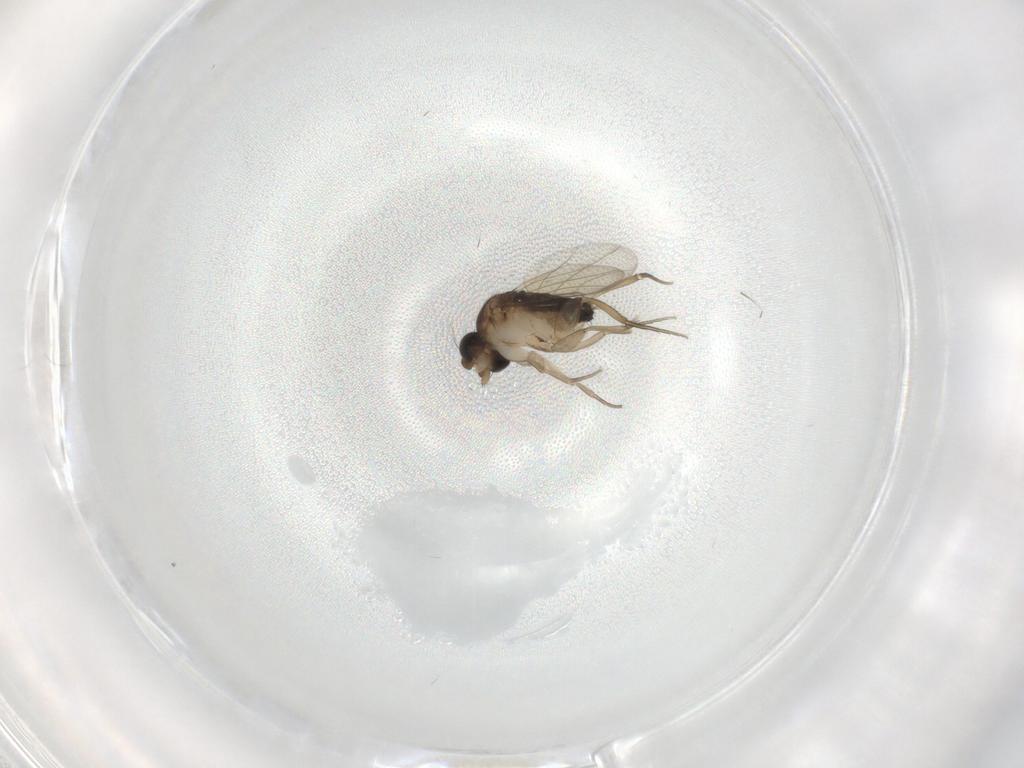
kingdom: Animalia
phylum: Arthropoda
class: Insecta
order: Diptera
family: Phoridae
